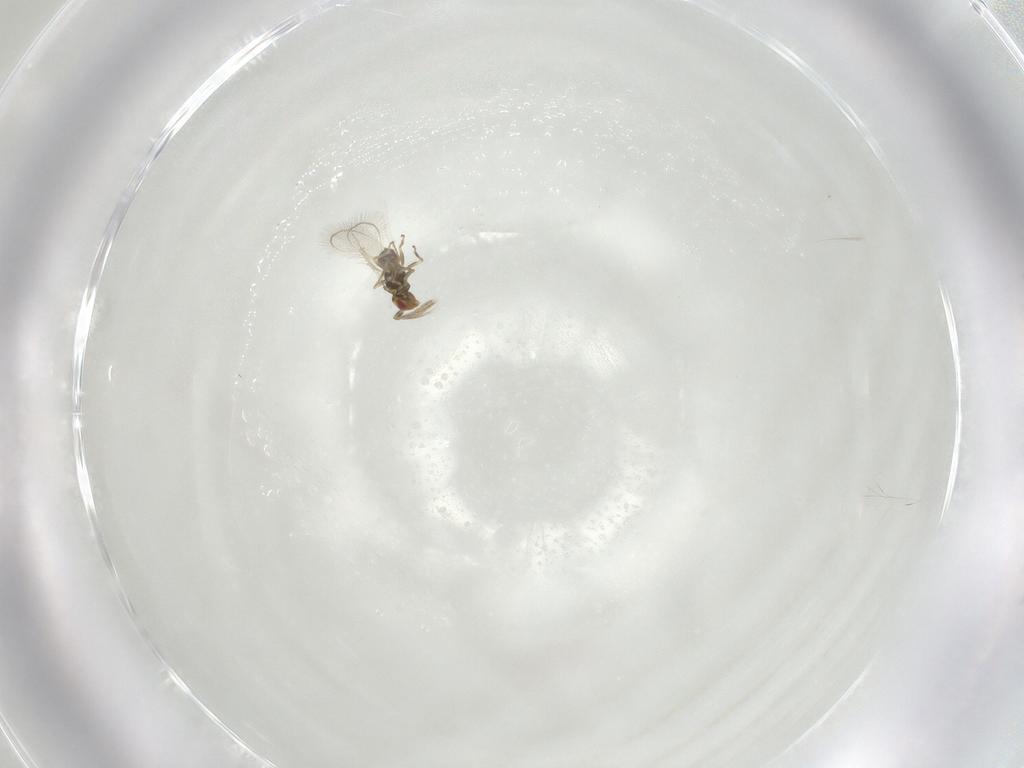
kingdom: Animalia
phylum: Arthropoda
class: Insecta
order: Hymenoptera
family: Eulophidae
